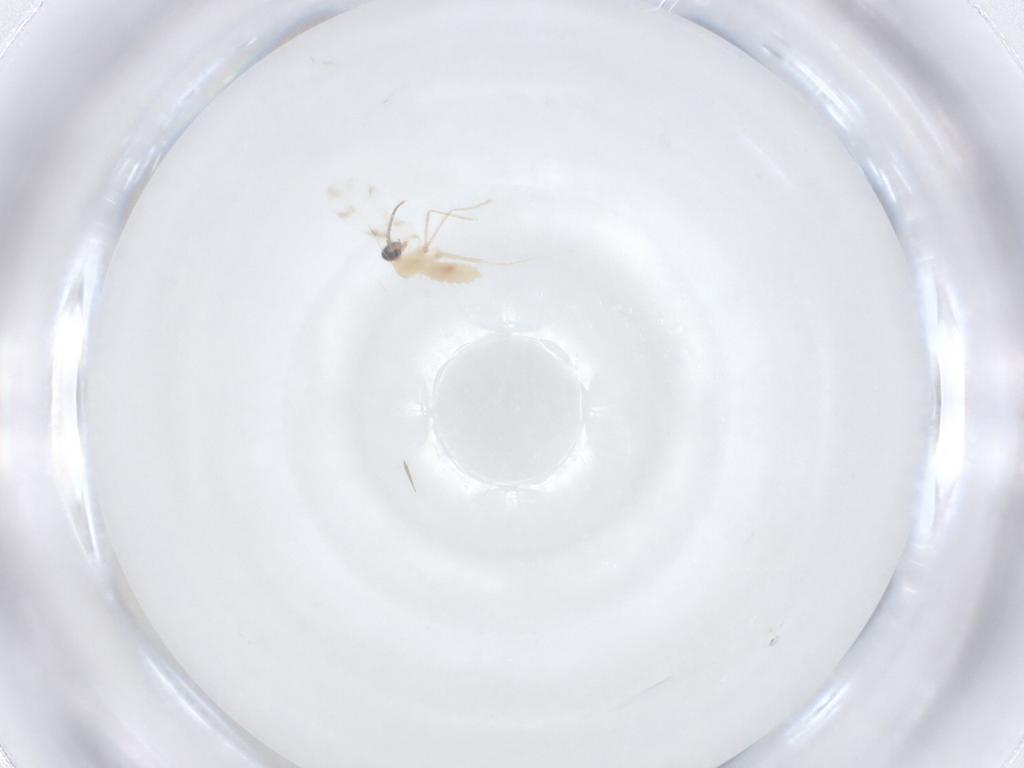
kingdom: Animalia
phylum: Arthropoda
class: Insecta
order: Diptera
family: Cecidomyiidae
